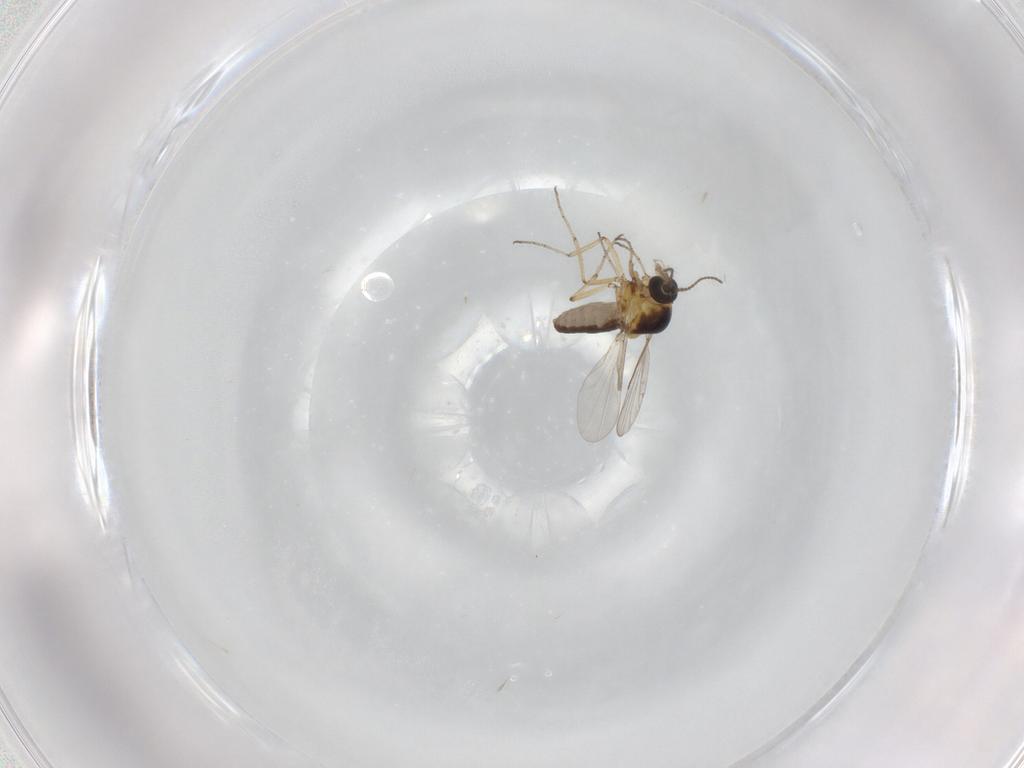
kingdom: Animalia
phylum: Arthropoda
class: Insecta
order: Diptera
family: Ceratopogonidae
